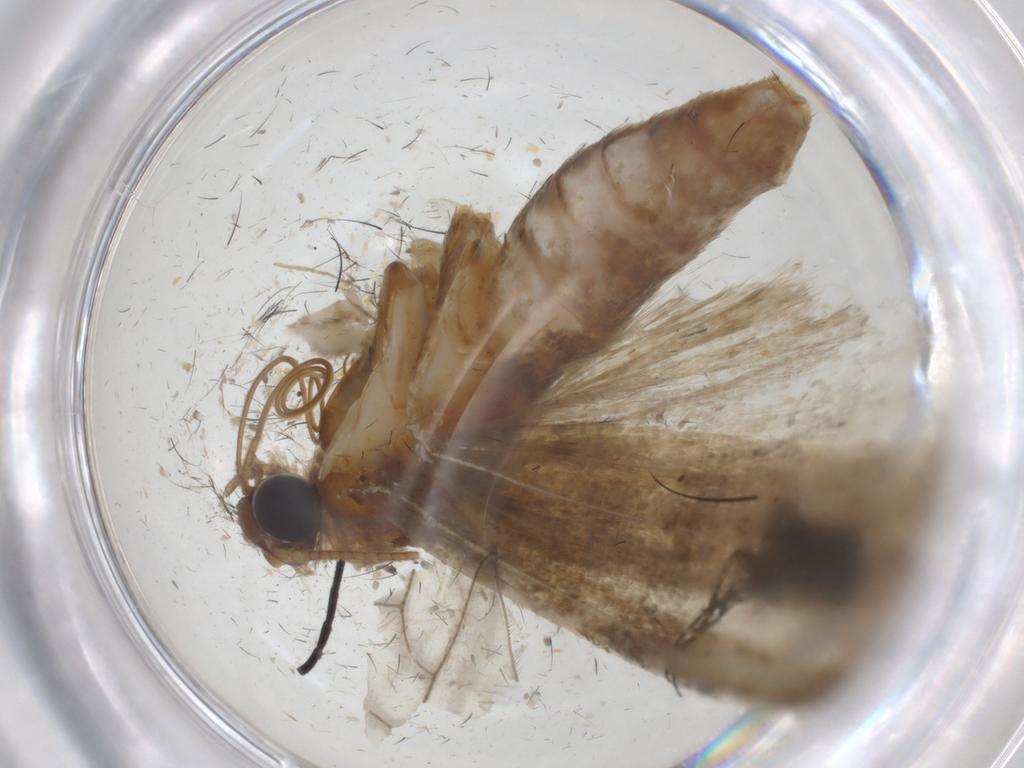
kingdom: Animalia
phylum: Arthropoda
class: Insecta
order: Lepidoptera
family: Pyralidae
